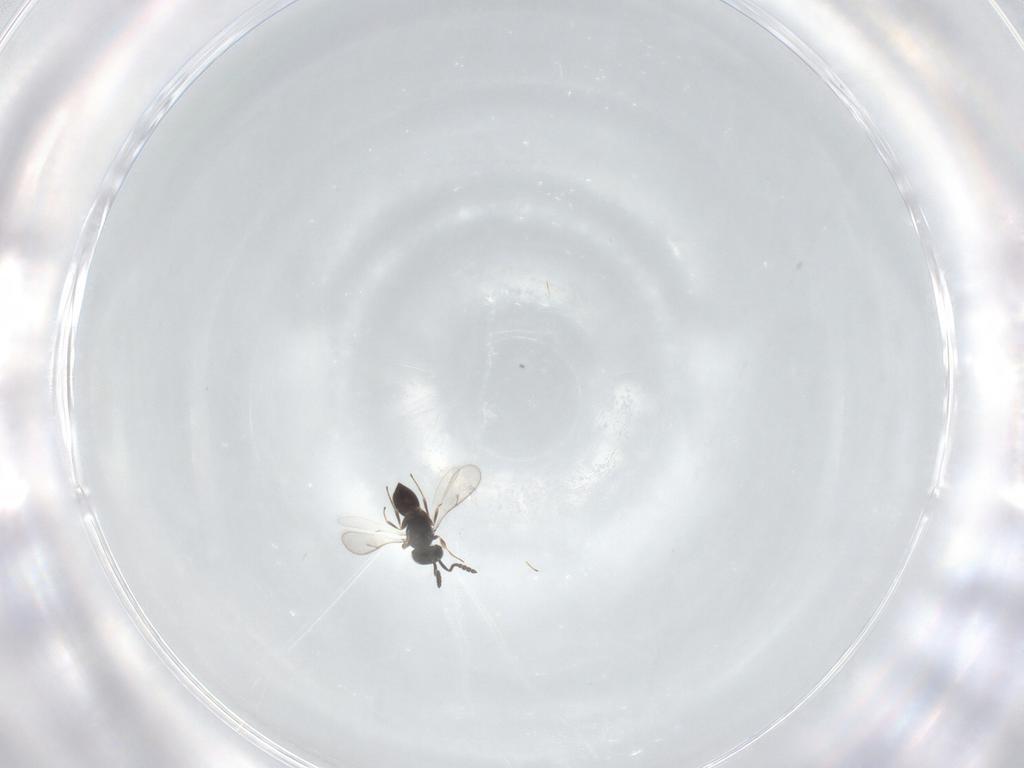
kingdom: Animalia
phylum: Arthropoda
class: Insecta
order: Hymenoptera
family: Scelionidae
